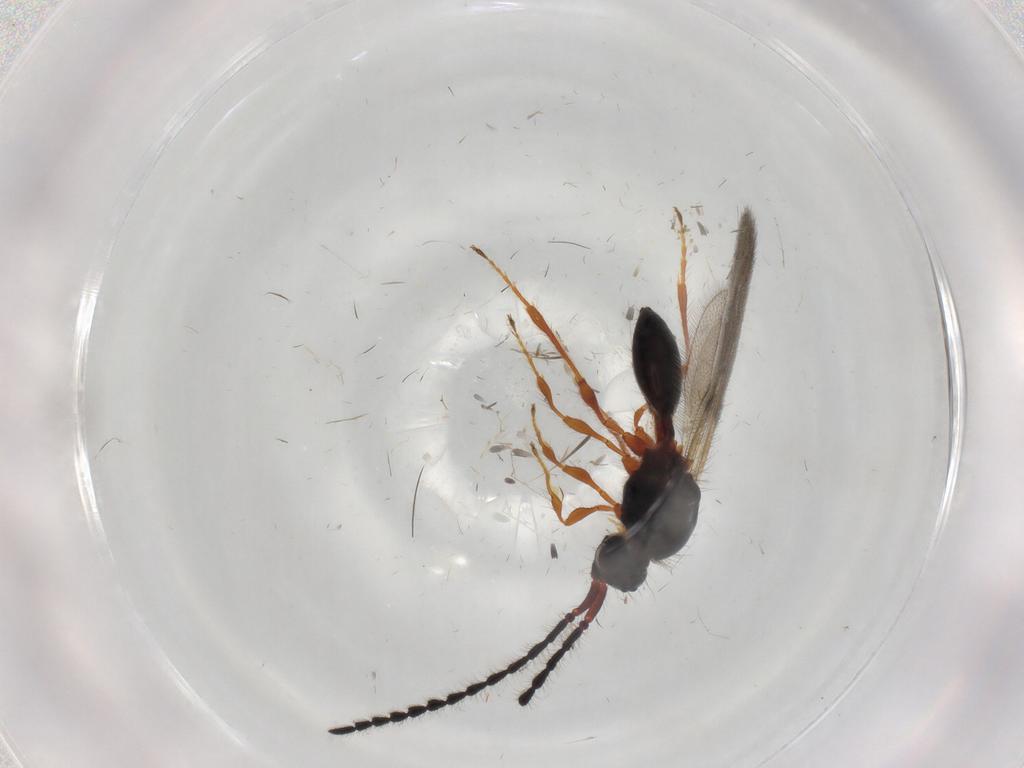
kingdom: Animalia
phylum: Arthropoda
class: Insecta
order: Hymenoptera
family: Diapriidae
